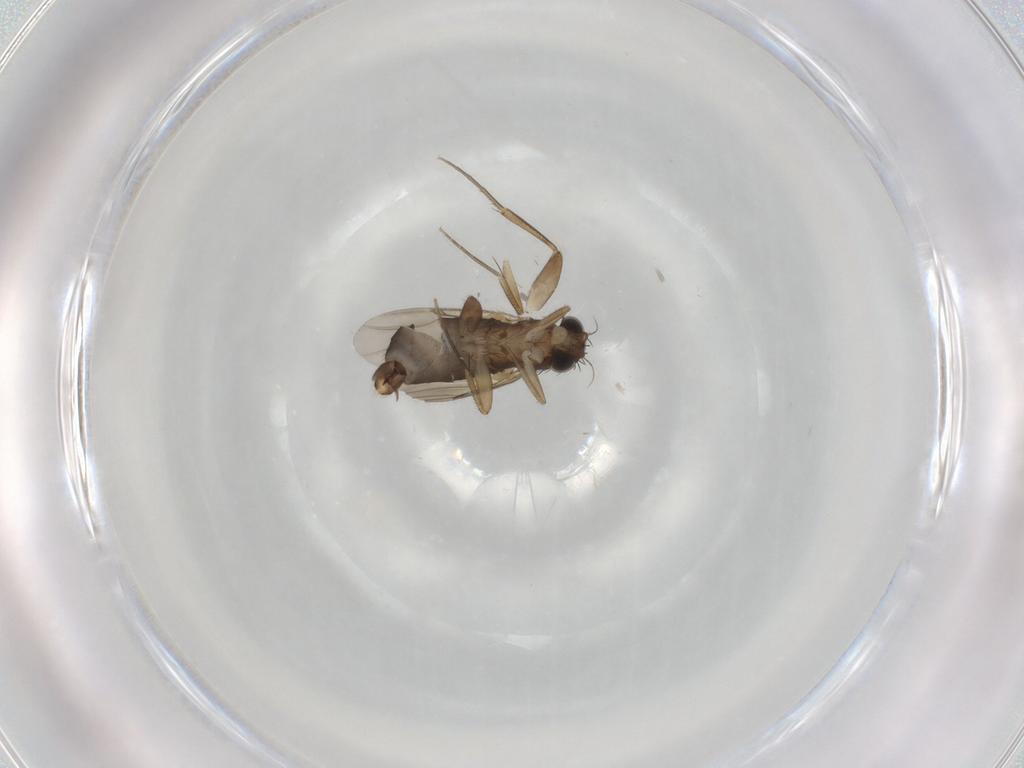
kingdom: Animalia
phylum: Arthropoda
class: Insecta
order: Diptera
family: Phoridae
